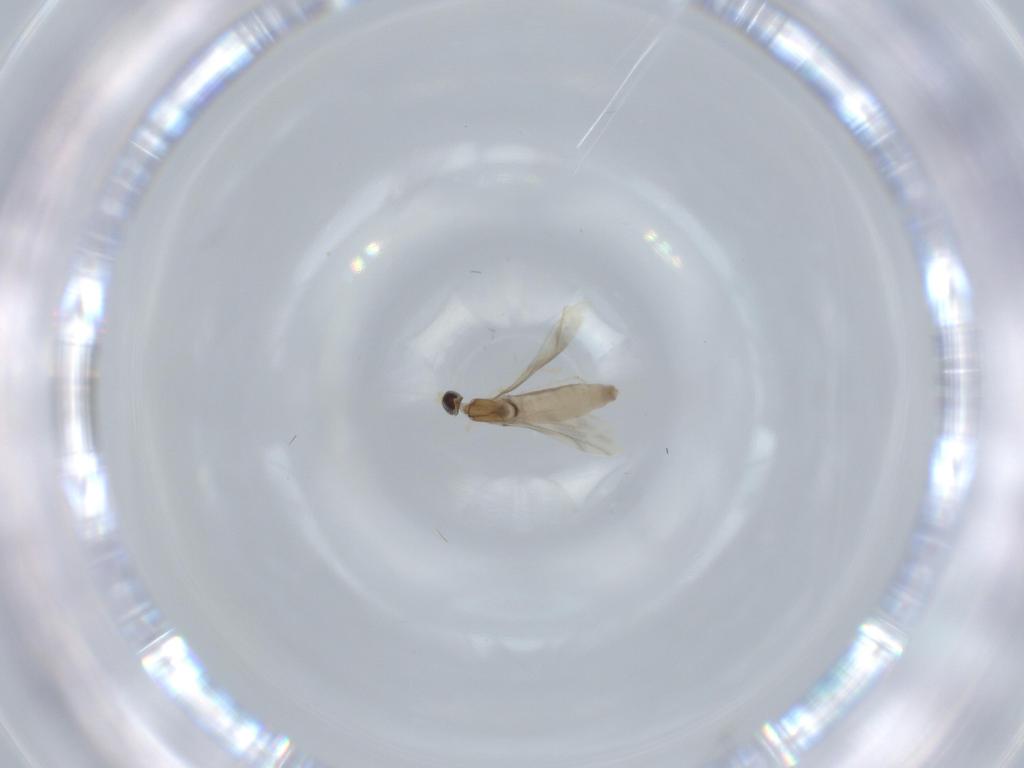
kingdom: Animalia
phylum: Arthropoda
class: Insecta
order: Diptera
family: Cecidomyiidae
